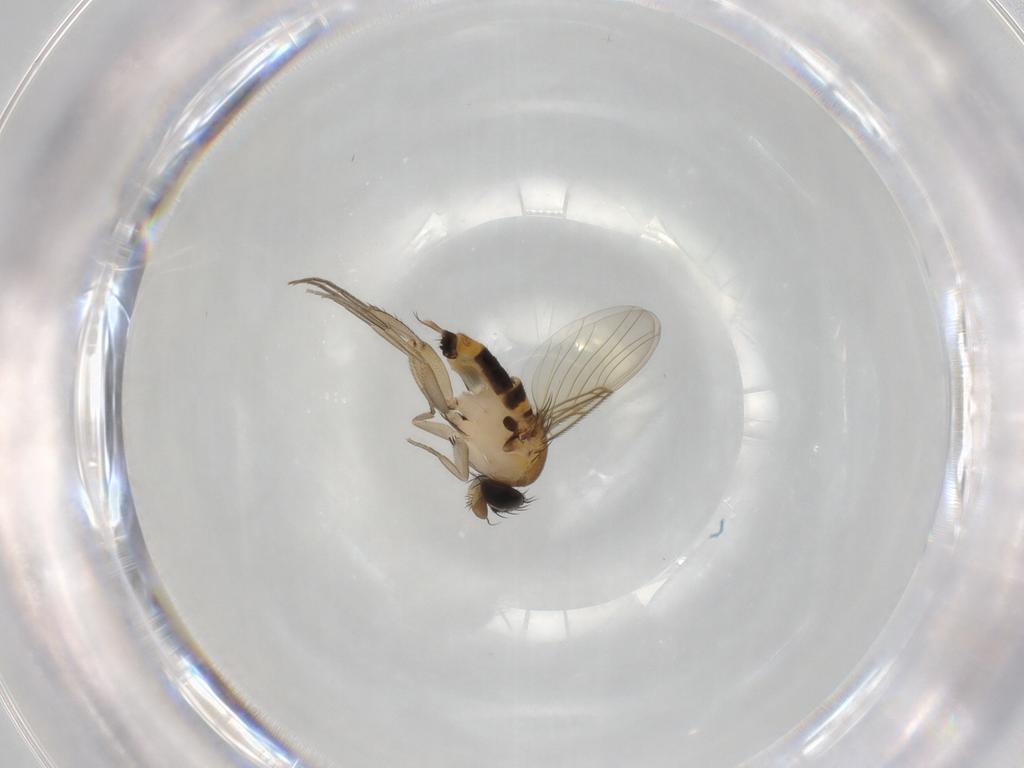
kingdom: Animalia
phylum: Arthropoda
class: Insecta
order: Diptera
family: Phoridae
